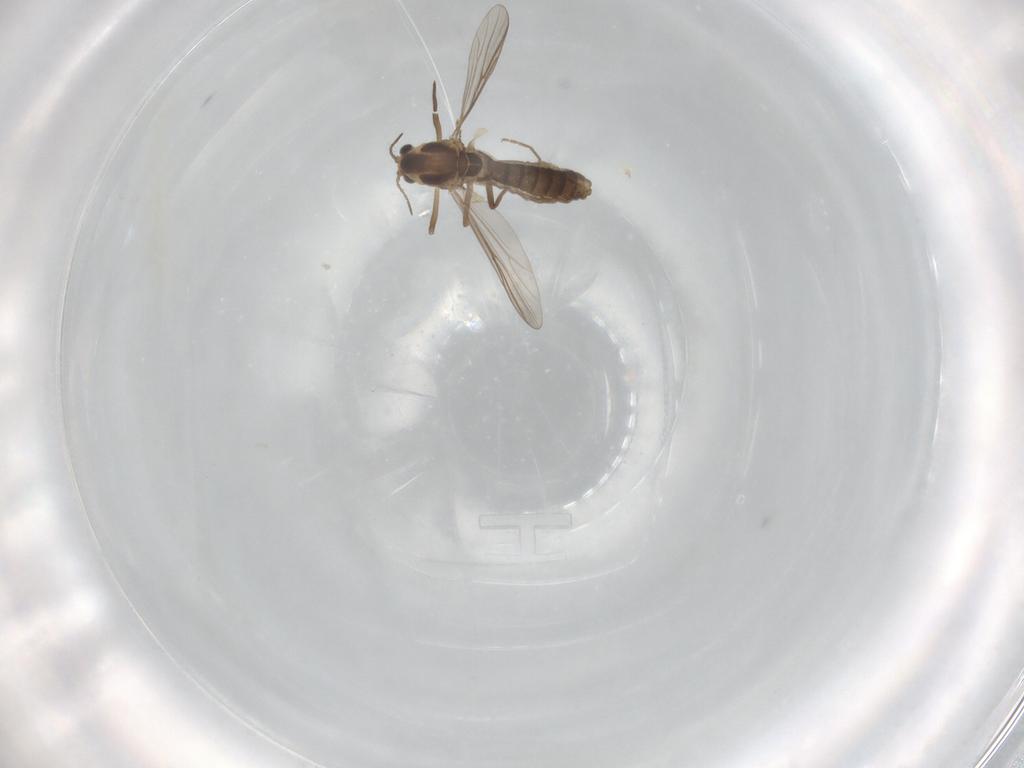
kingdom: Animalia
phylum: Arthropoda
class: Insecta
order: Diptera
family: Chironomidae
